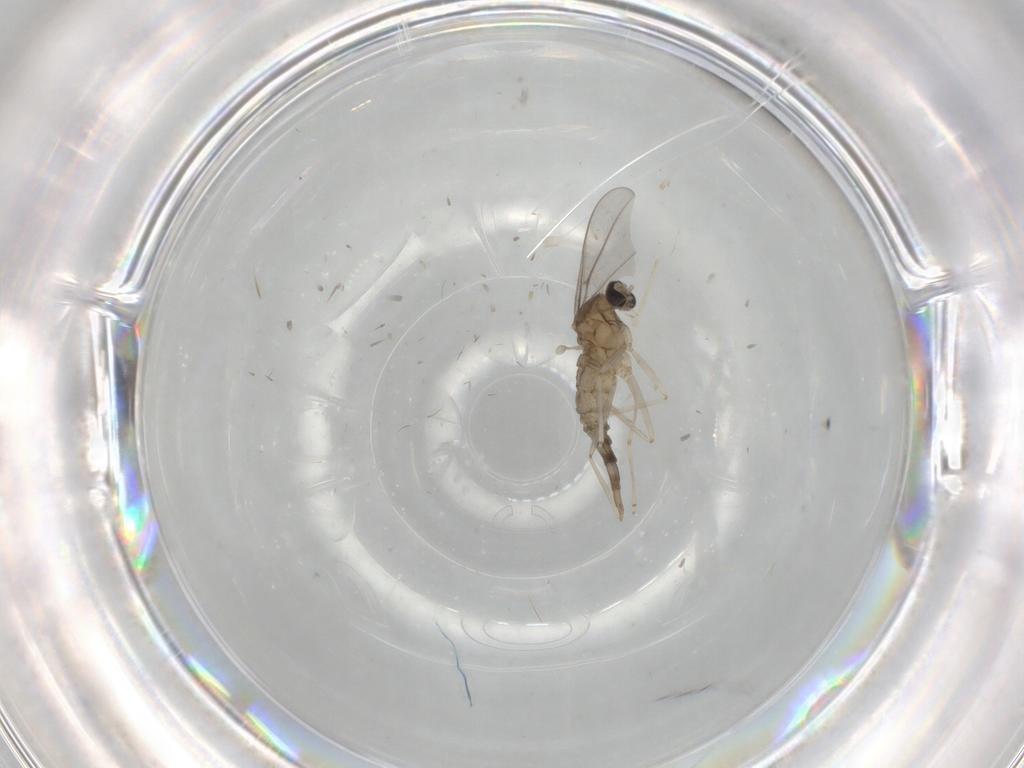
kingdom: Animalia
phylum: Arthropoda
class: Insecta
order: Diptera
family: Cecidomyiidae
